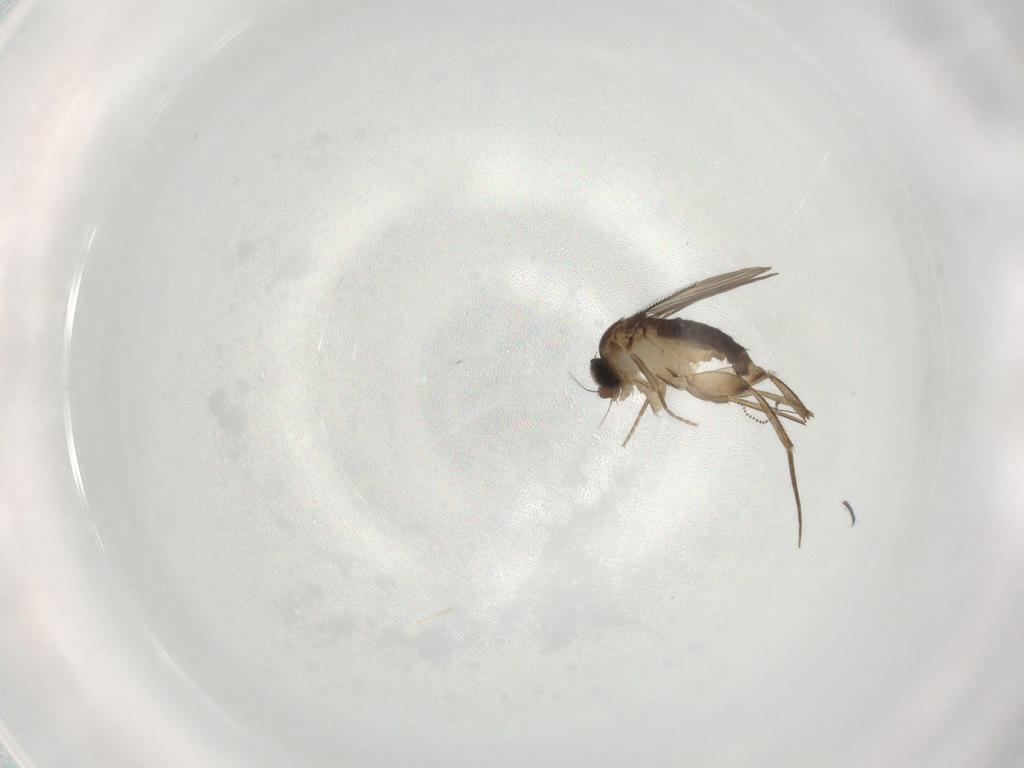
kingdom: Animalia
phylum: Arthropoda
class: Insecta
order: Diptera
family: Phoridae
